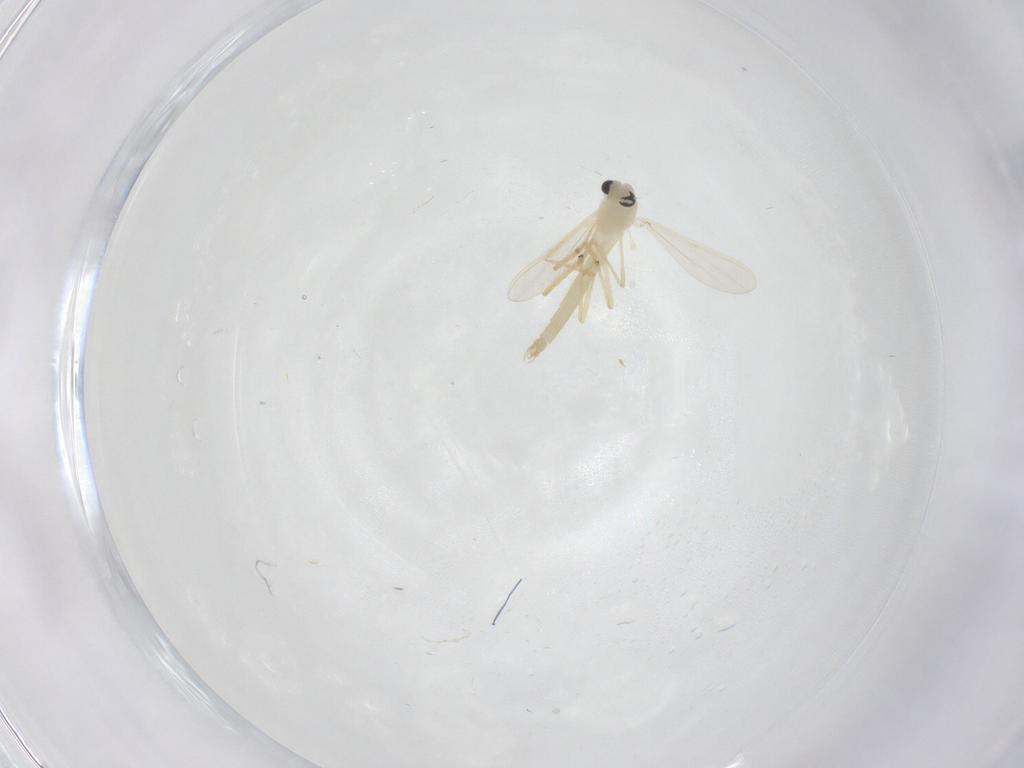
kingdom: Animalia
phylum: Arthropoda
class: Insecta
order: Diptera
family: Chironomidae
